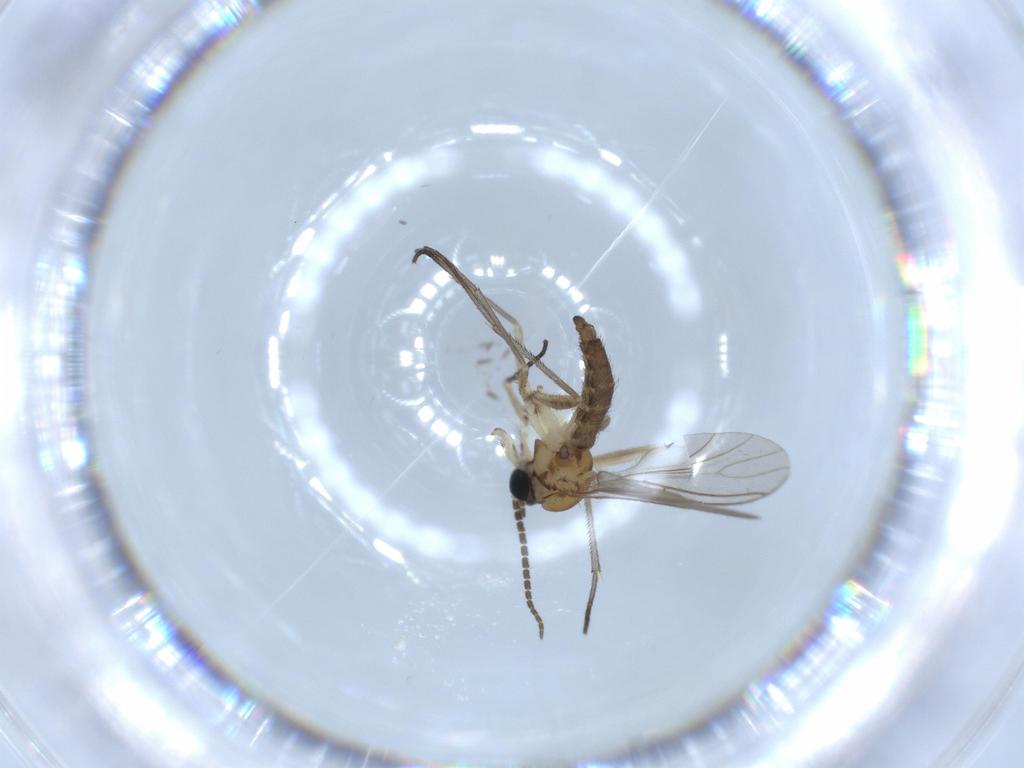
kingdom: Animalia
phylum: Arthropoda
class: Insecta
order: Diptera
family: Sciaridae
